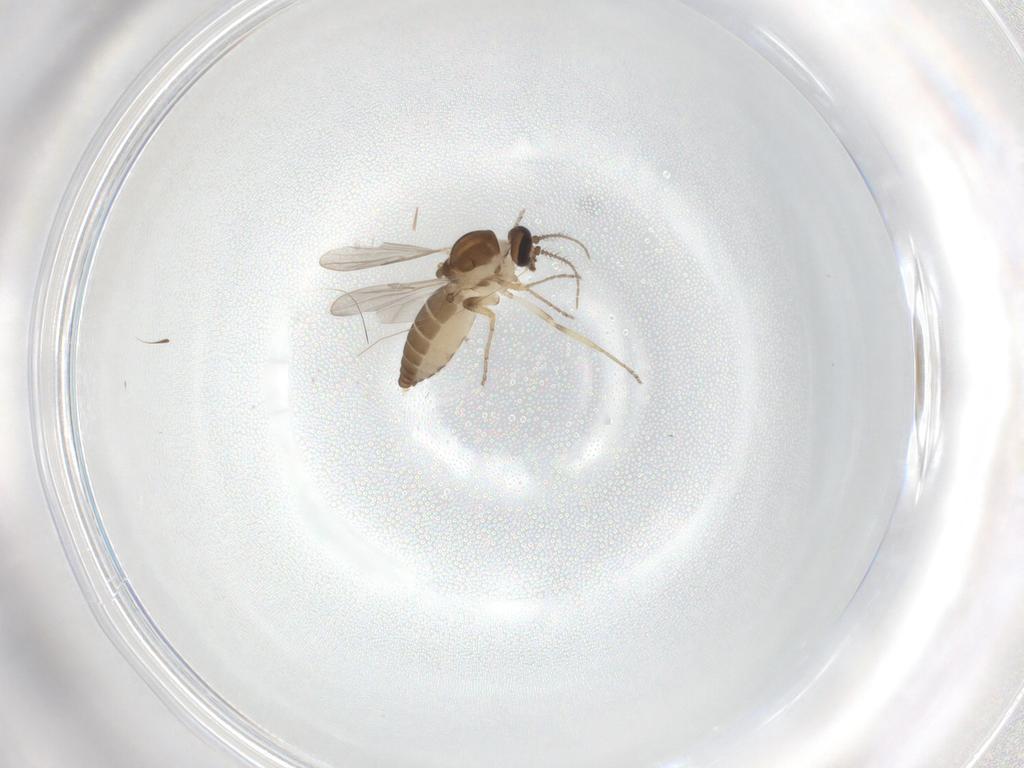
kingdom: Animalia
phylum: Arthropoda
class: Insecta
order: Diptera
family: Ceratopogonidae
